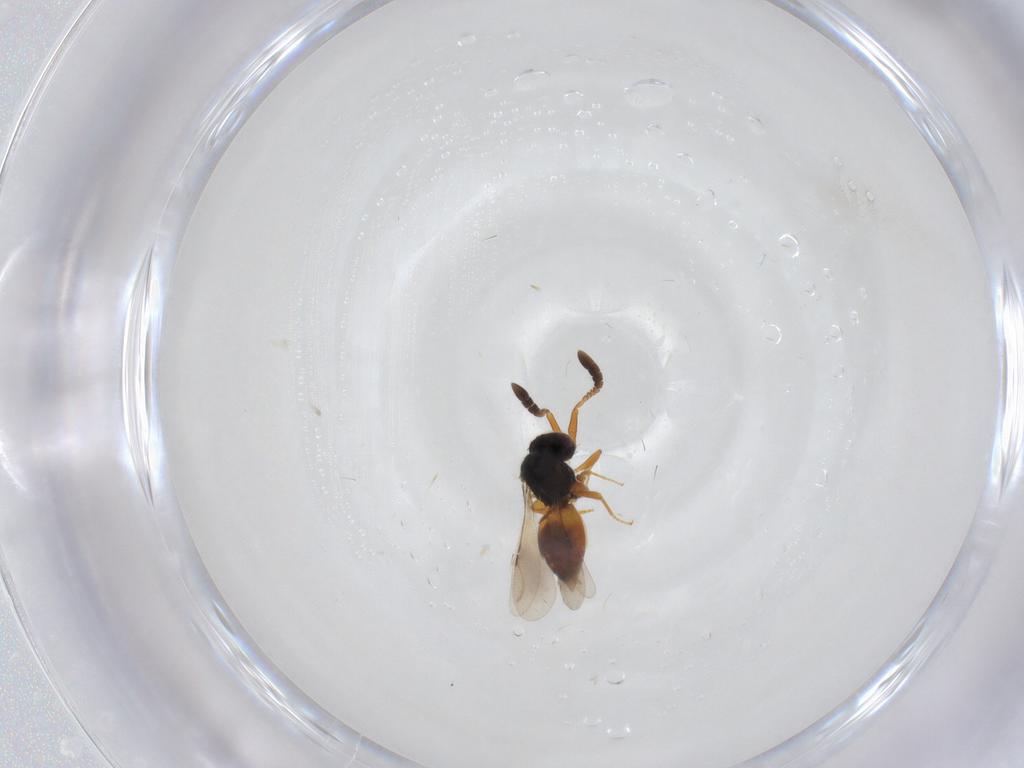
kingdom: Animalia
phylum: Arthropoda
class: Insecta
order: Hymenoptera
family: Braconidae
